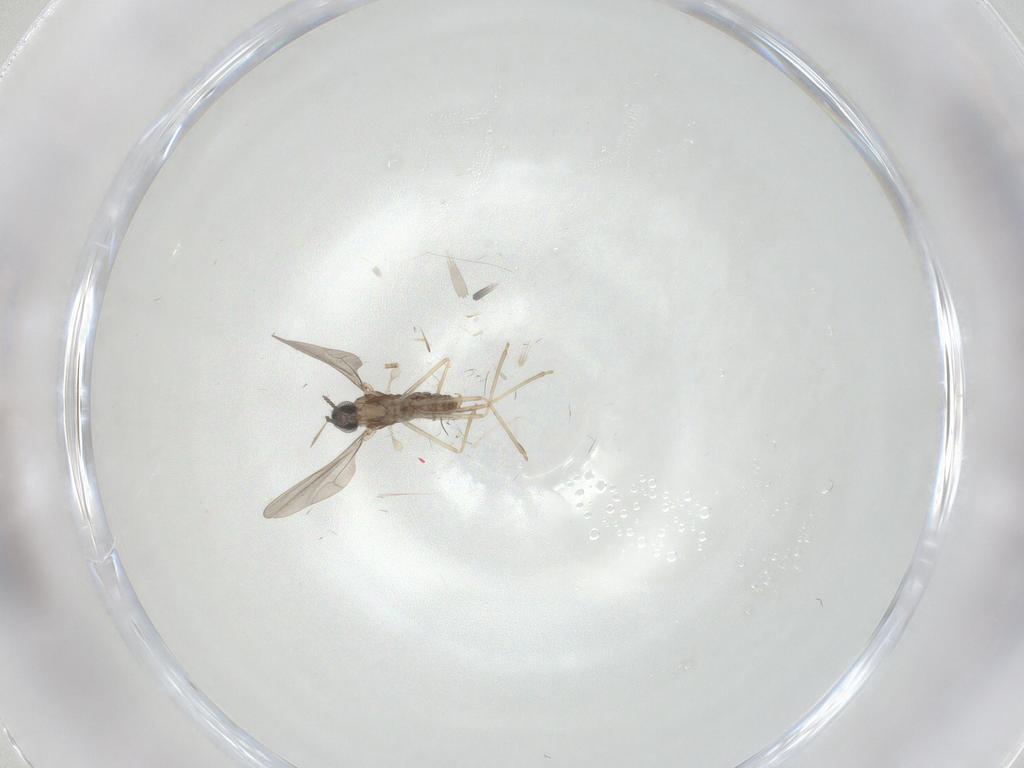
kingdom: Animalia
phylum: Arthropoda
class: Insecta
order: Diptera
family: Cecidomyiidae
